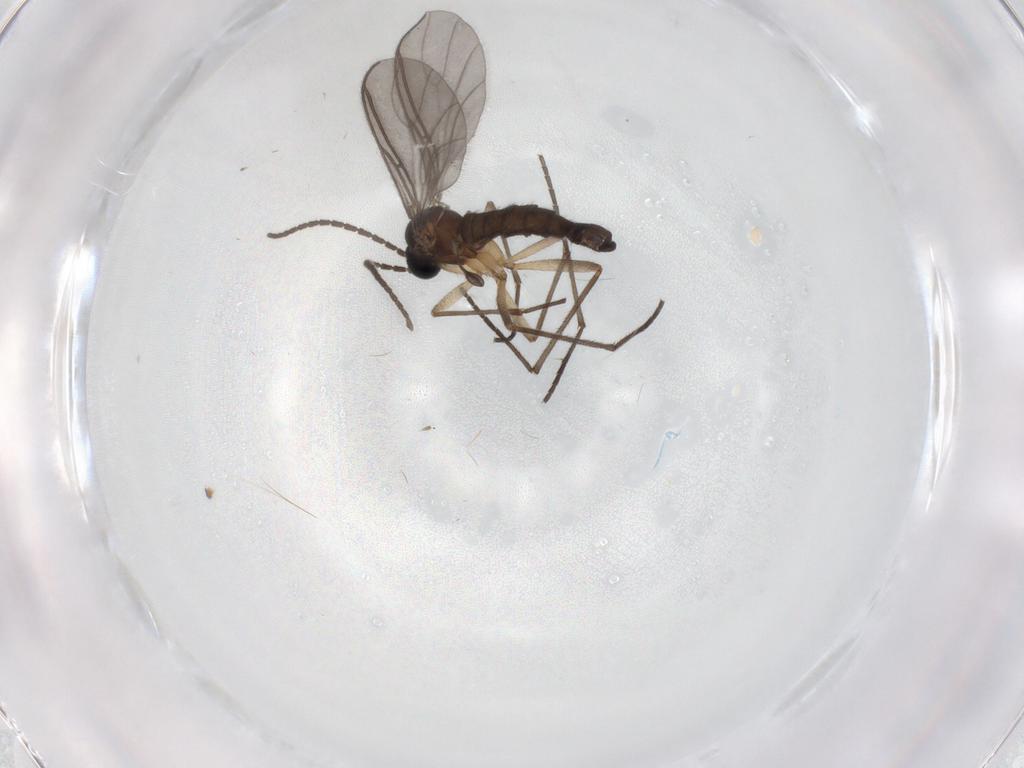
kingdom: Animalia
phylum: Arthropoda
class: Insecta
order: Diptera
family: Sciaridae
